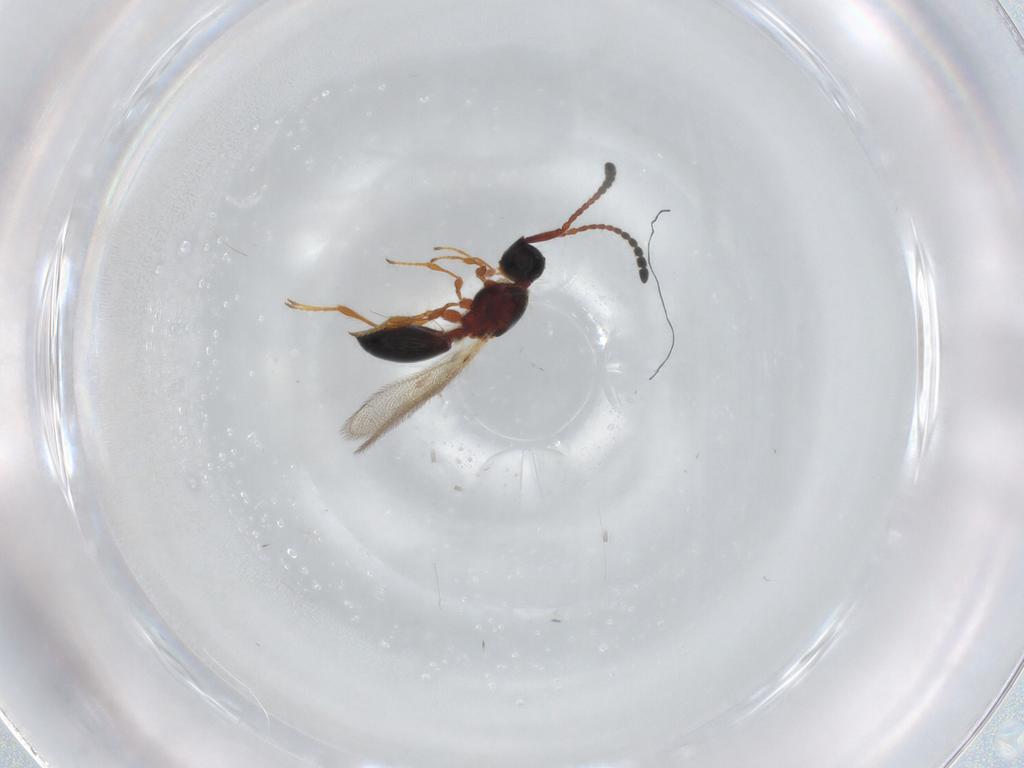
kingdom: Animalia
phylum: Arthropoda
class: Insecta
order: Hymenoptera
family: Diapriidae
